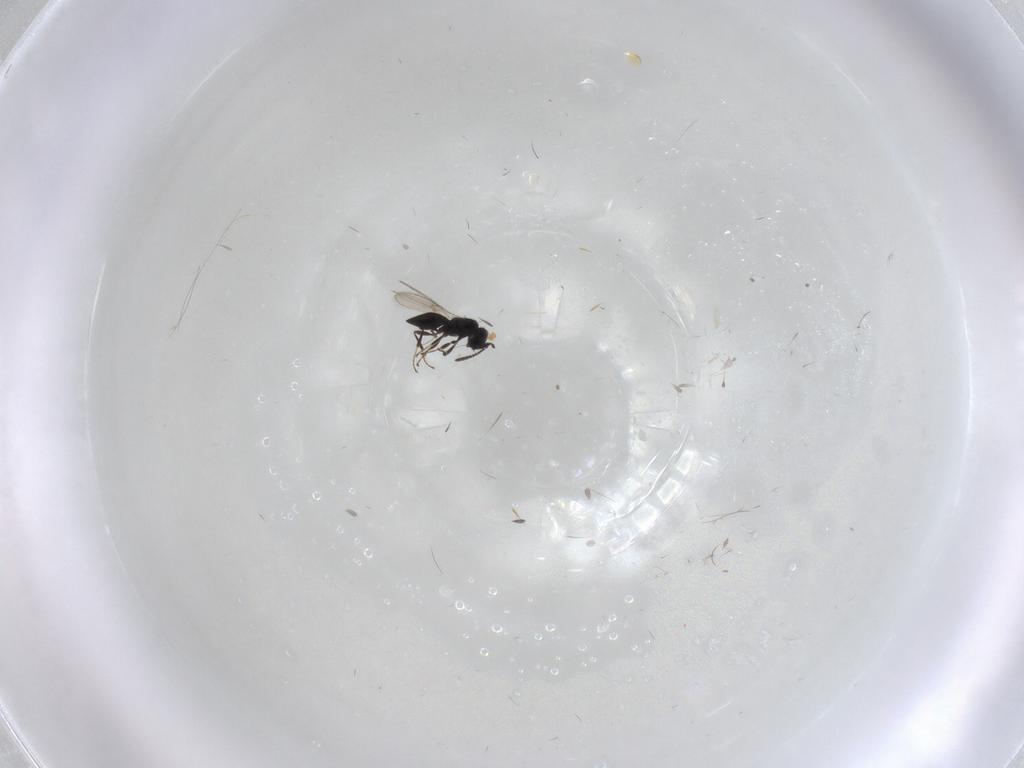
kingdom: Animalia
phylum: Arthropoda
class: Insecta
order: Hymenoptera
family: Scelionidae
